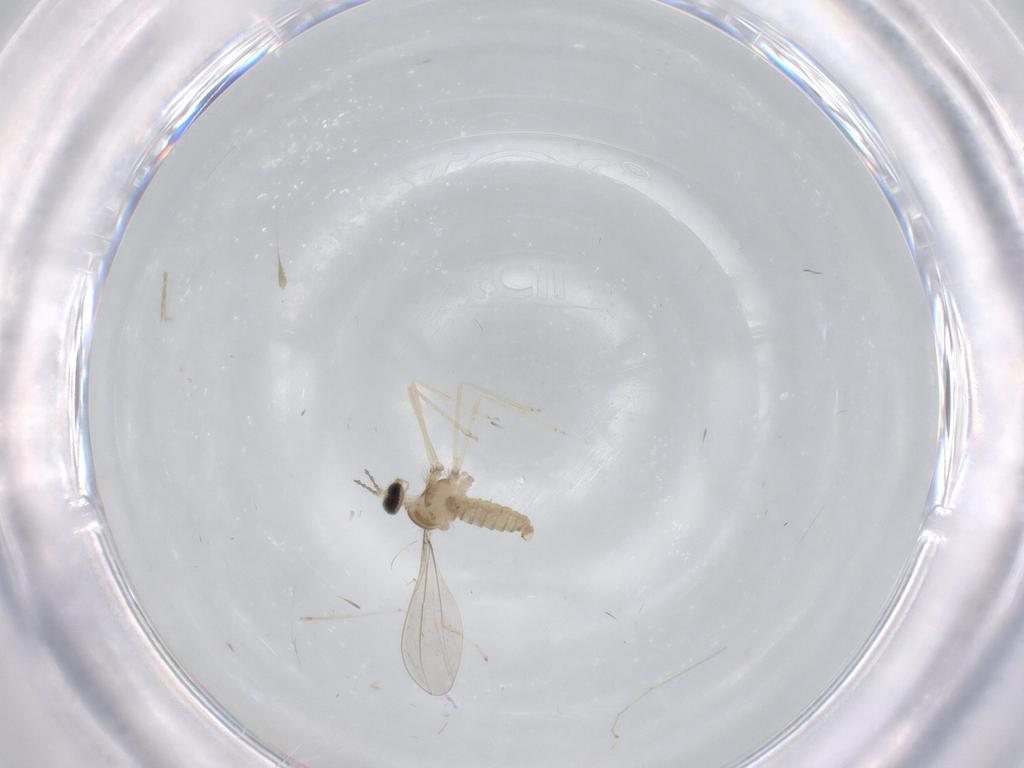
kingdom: Animalia
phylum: Arthropoda
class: Insecta
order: Diptera
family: Cecidomyiidae
